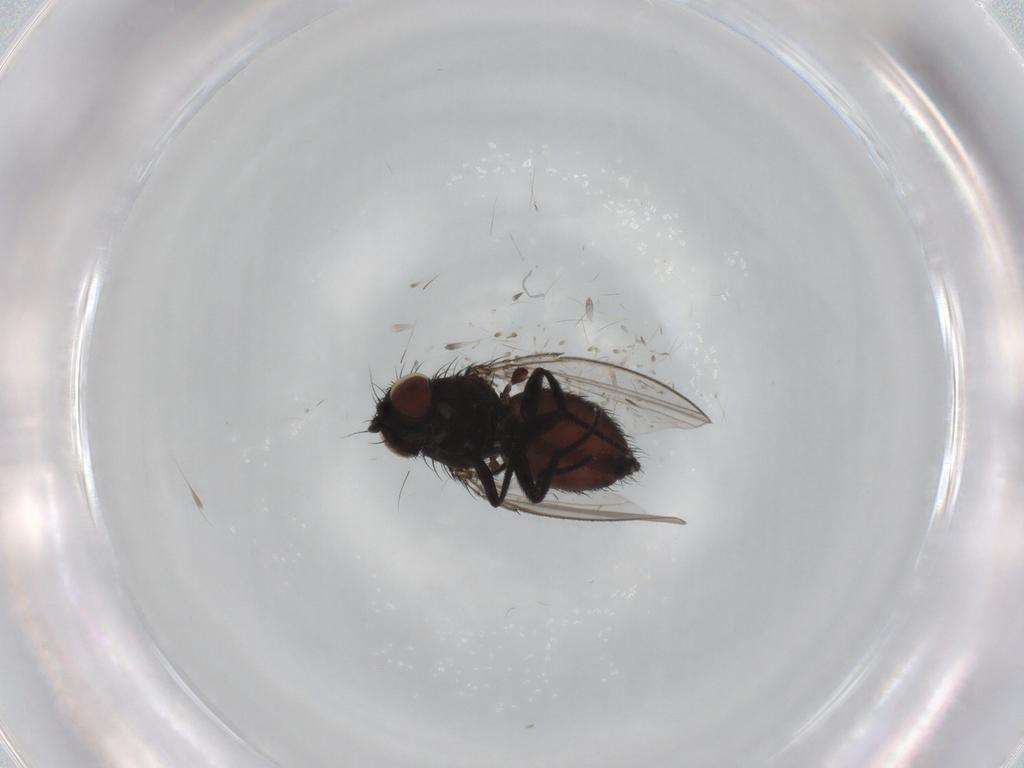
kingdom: Animalia
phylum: Arthropoda
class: Insecta
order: Diptera
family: Milichiidae
